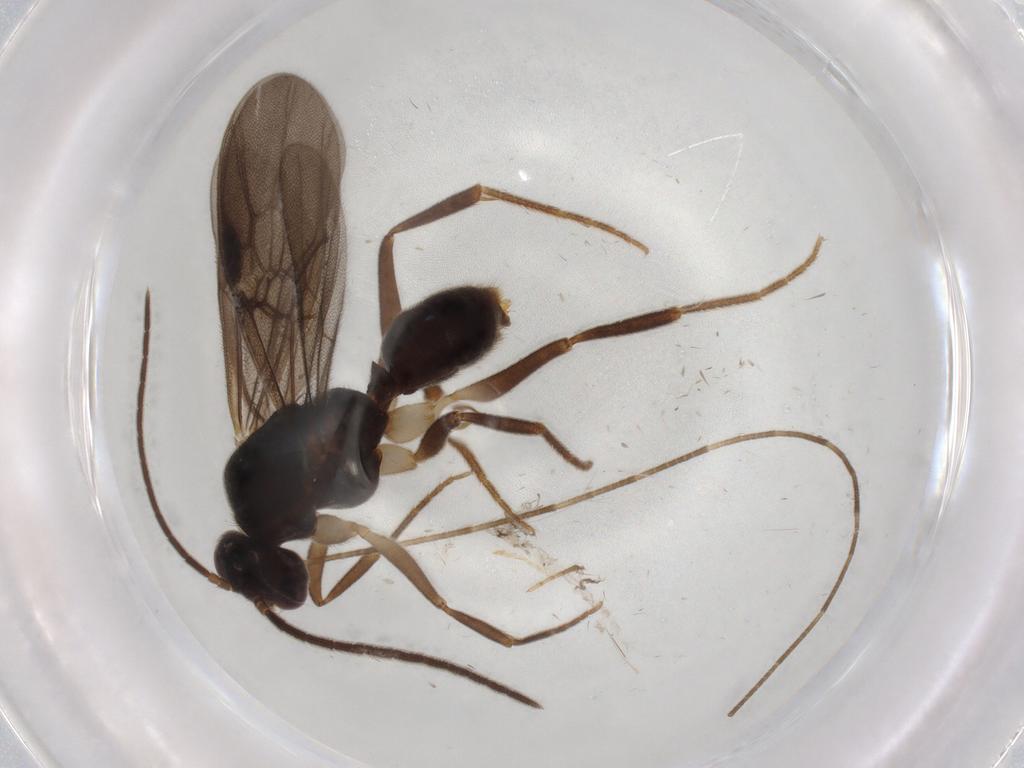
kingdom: Animalia
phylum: Arthropoda
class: Insecta
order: Hymenoptera
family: Formicidae
